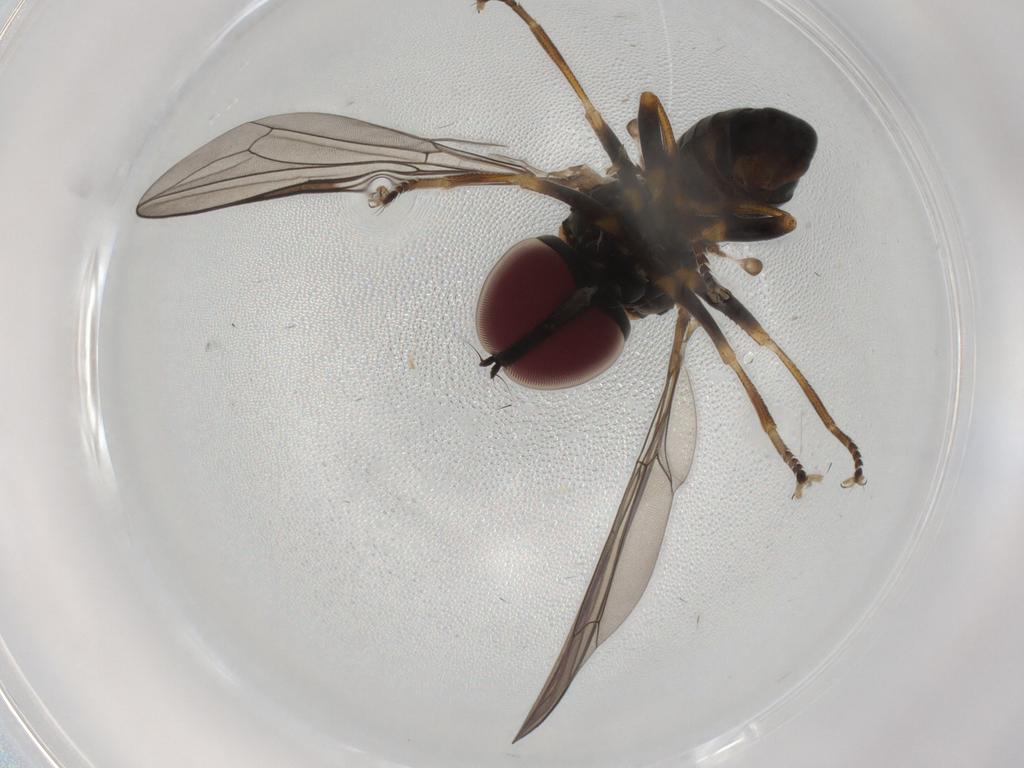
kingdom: Animalia
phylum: Arthropoda
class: Insecta
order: Diptera
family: Pipunculidae
